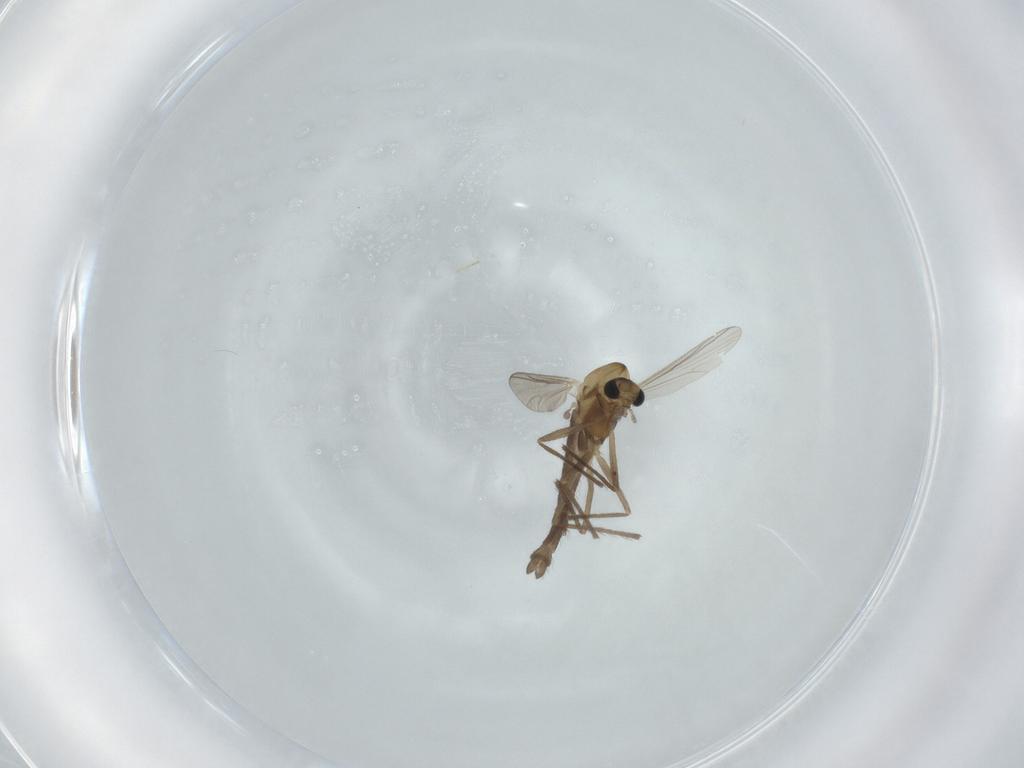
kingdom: Animalia
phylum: Arthropoda
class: Insecta
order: Diptera
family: Chironomidae
